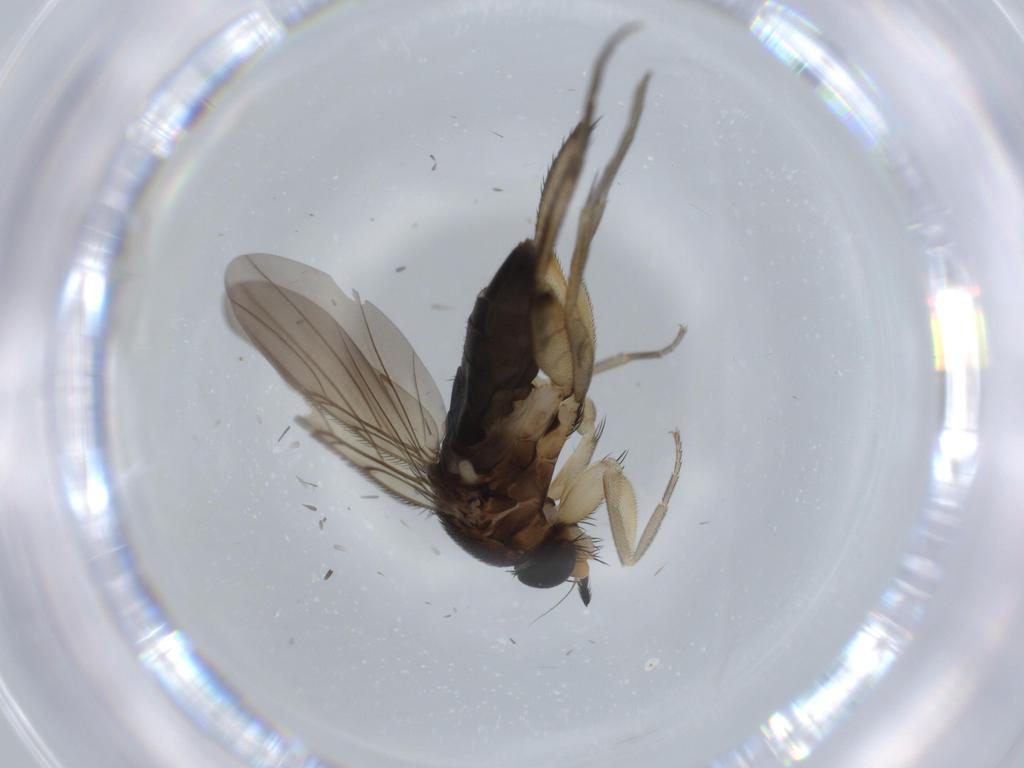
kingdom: Animalia
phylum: Arthropoda
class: Insecta
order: Diptera
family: Phoridae
